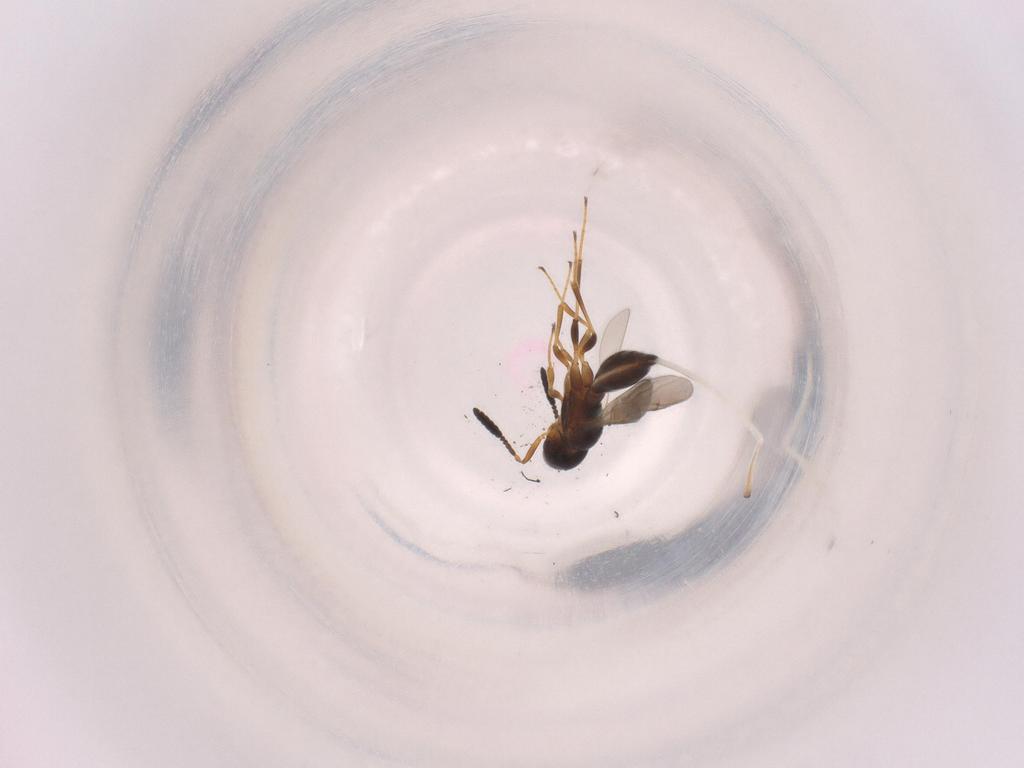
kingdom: Animalia
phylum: Arthropoda
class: Insecta
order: Hymenoptera
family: Scelionidae
